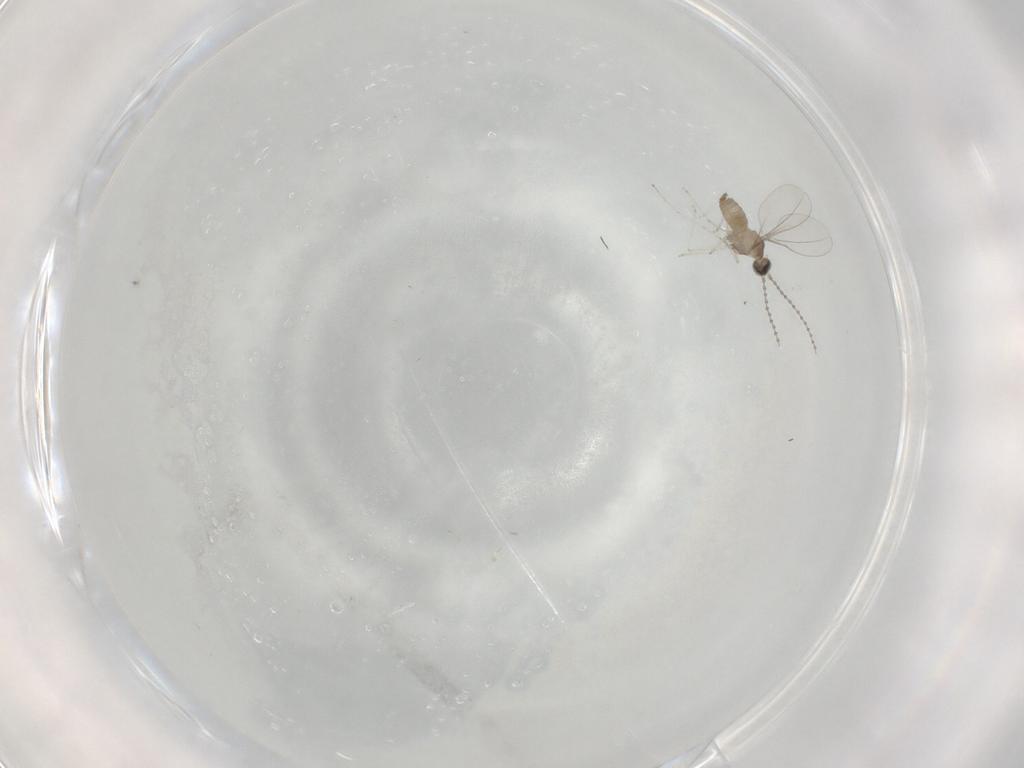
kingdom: Animalia
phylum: Arthropoda
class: Insecta
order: Diptera
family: Cecidomyiidae
